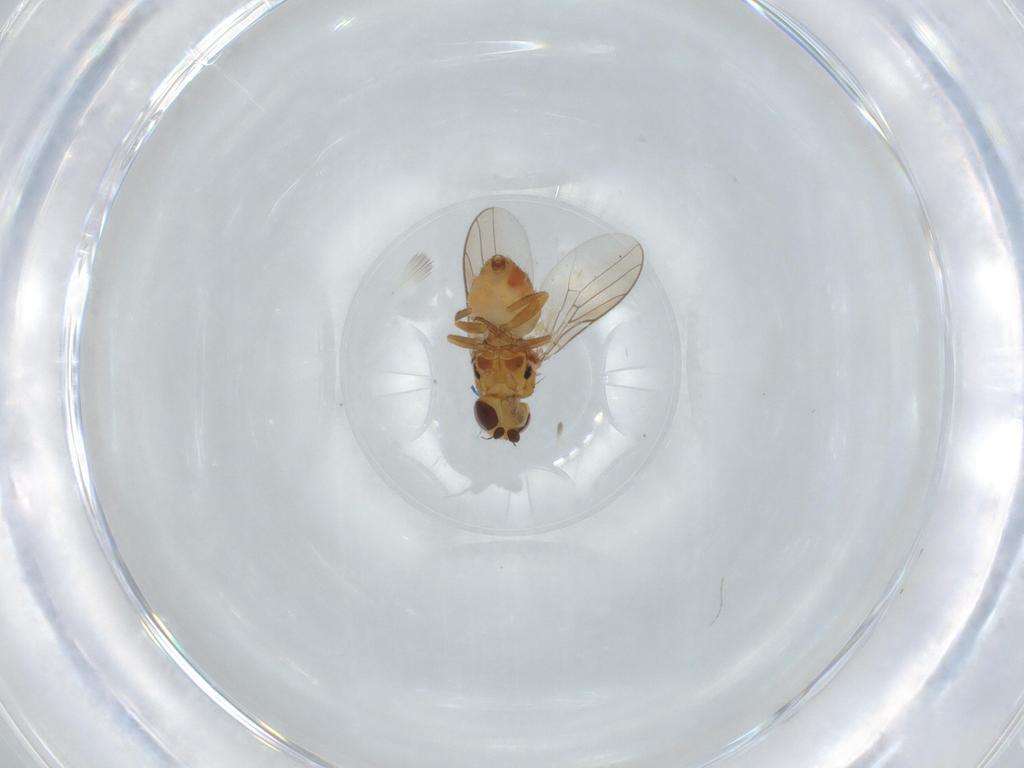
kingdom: Animalia
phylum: Arthropoda
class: Insecta
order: Diptera
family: Chloropidae
